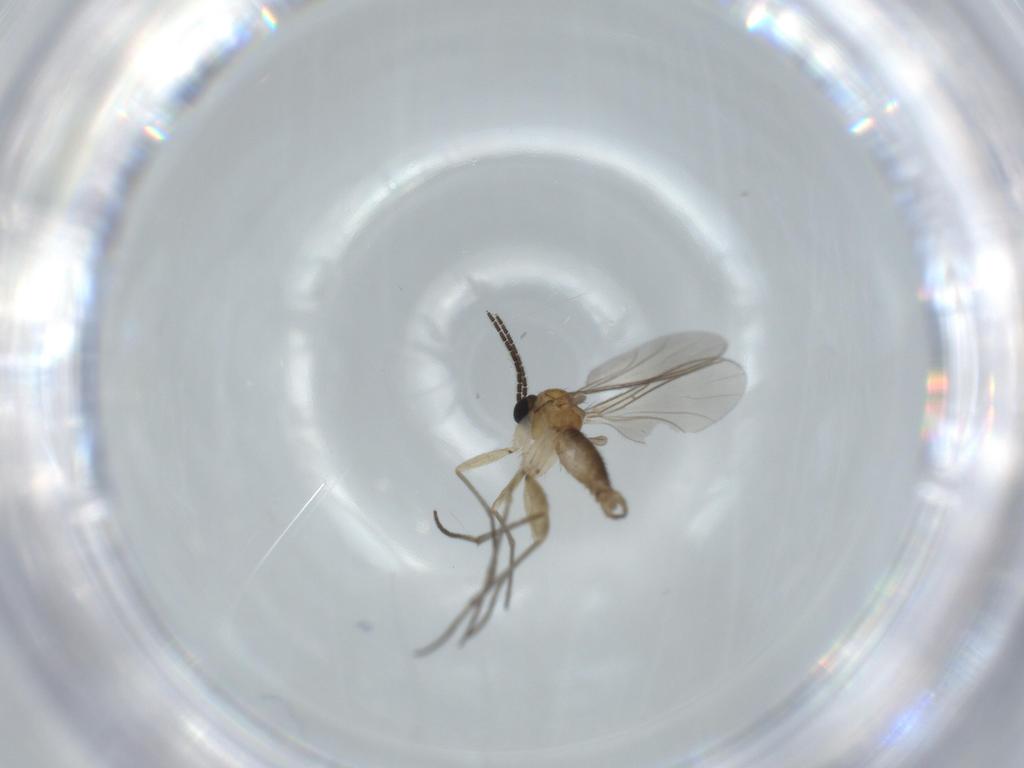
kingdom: Animalia
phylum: Arthropoda
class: Insecta
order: Diptera
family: Sciaridae
